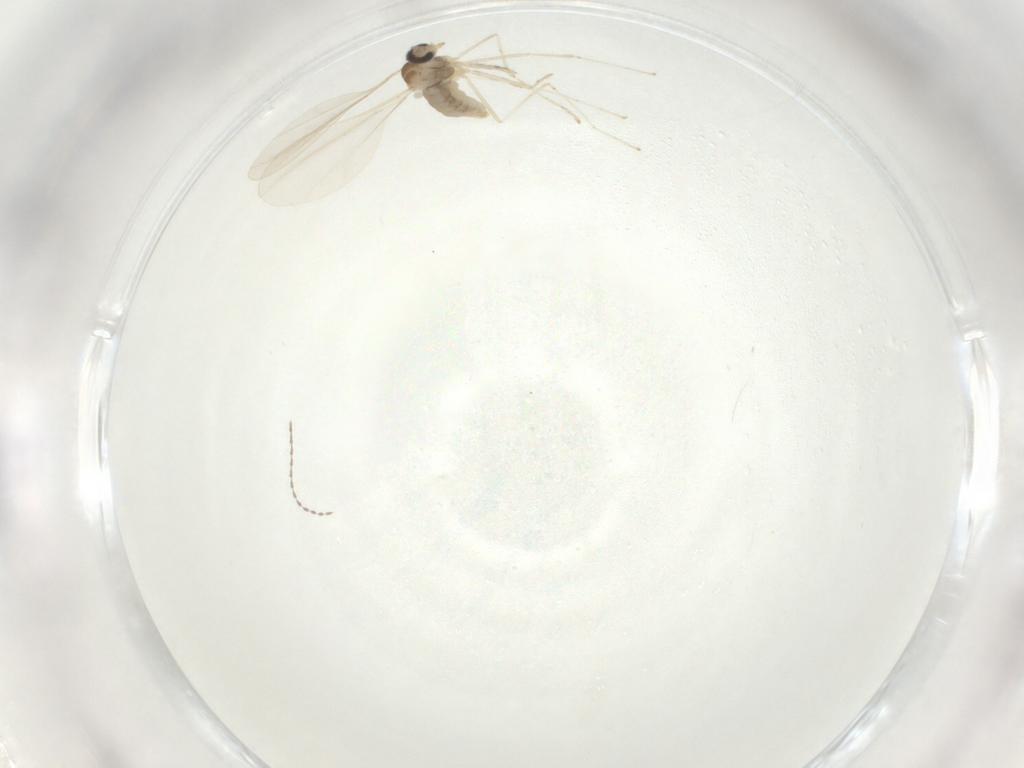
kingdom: Animalia
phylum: Arthropoda
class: Insecta
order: Diptera
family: Cecidomyiidae
